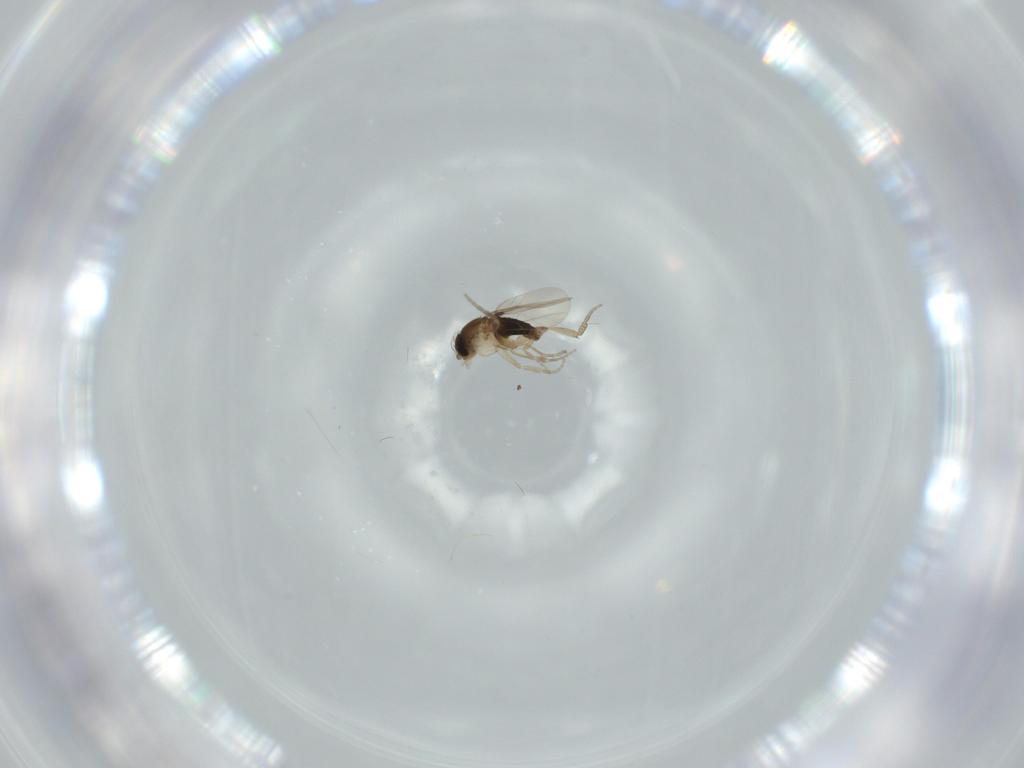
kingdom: Animalia
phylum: Arthropoda
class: Insecta
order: Diptera
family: Phoridae
